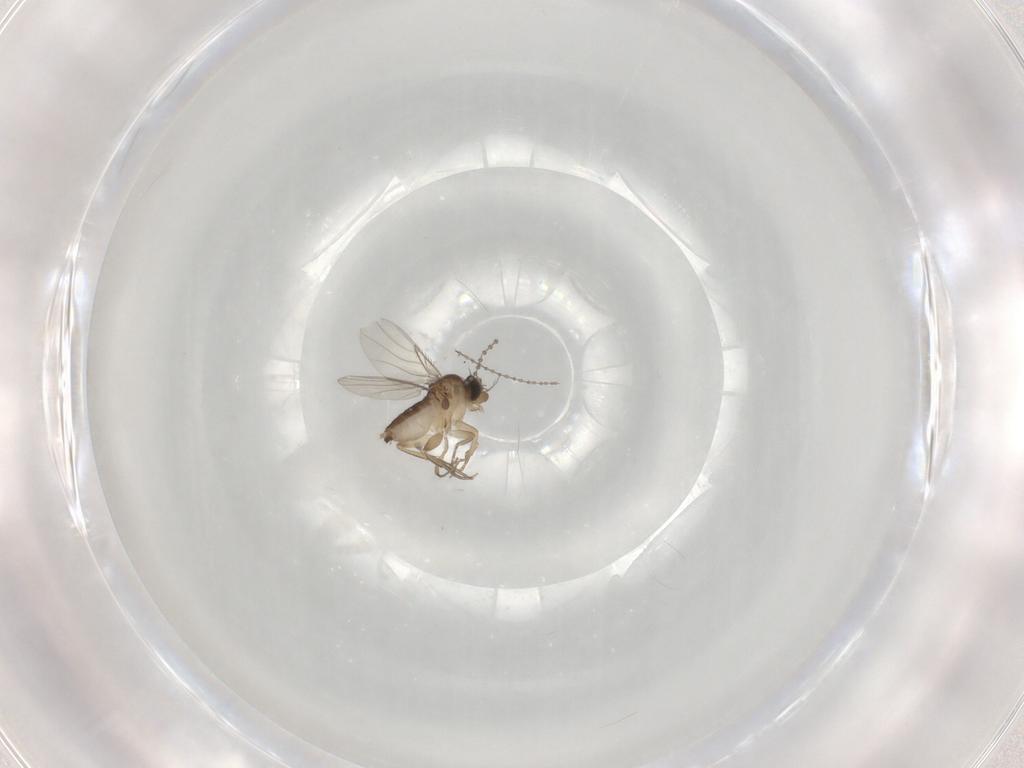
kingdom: Animalia
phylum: Arthropoda
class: Insecta
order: Diptera
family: Phoridae
